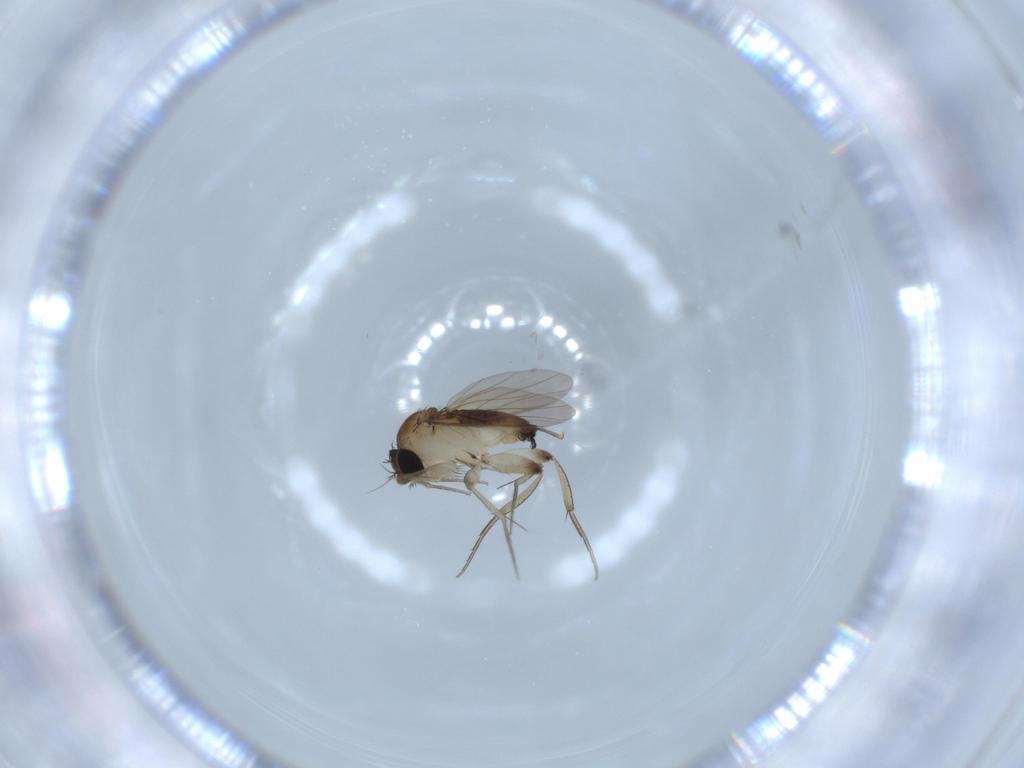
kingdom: Animalia
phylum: Arthropoda
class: Insecta
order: Diptera
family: Phoridae
